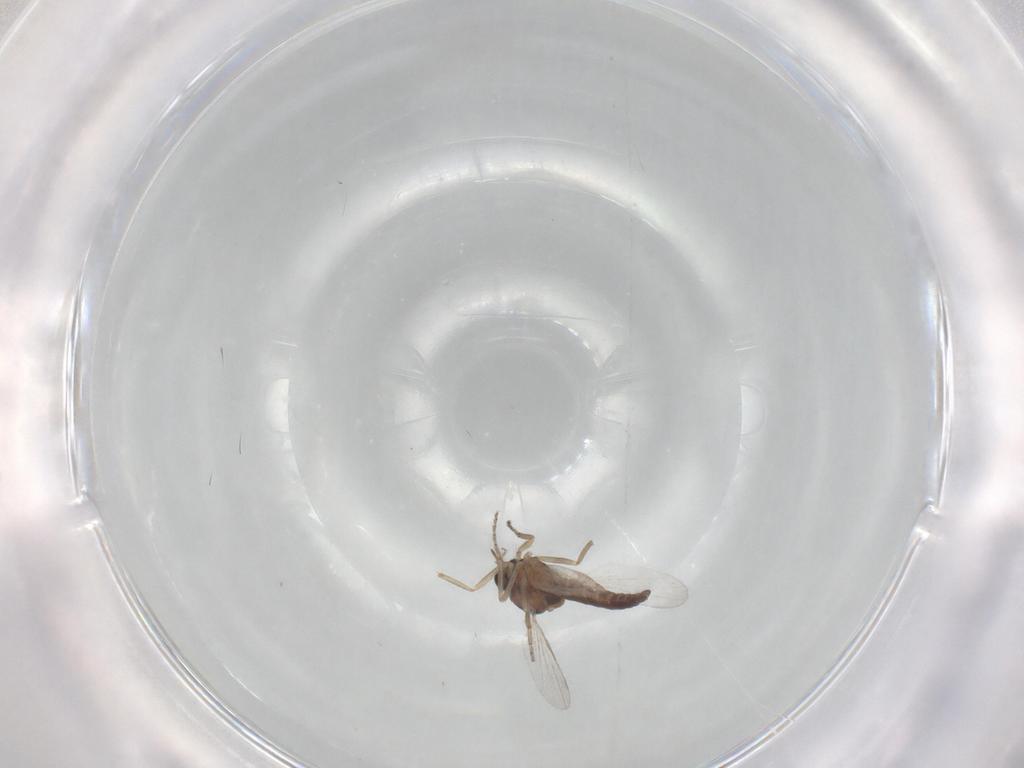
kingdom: Animalia
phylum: Arthropoda
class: Insecta
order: Diptera
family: Ceratopogonidae
